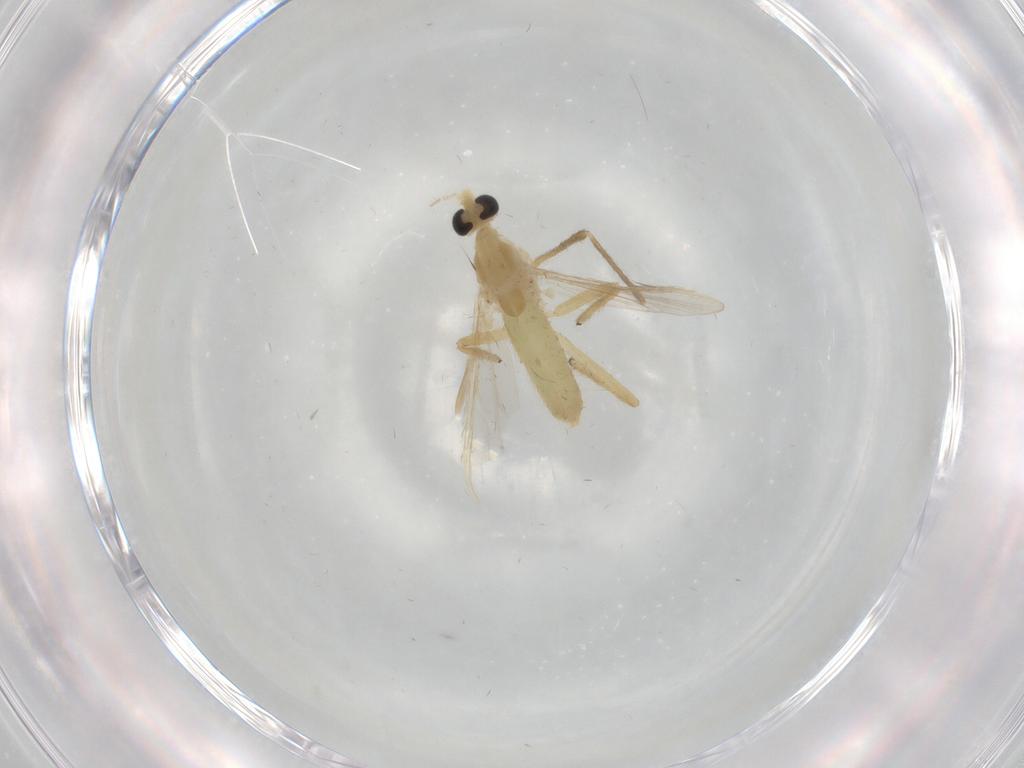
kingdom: Animalia
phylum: Arthropoda
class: Insecta
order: Diptera
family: Chironomidae
